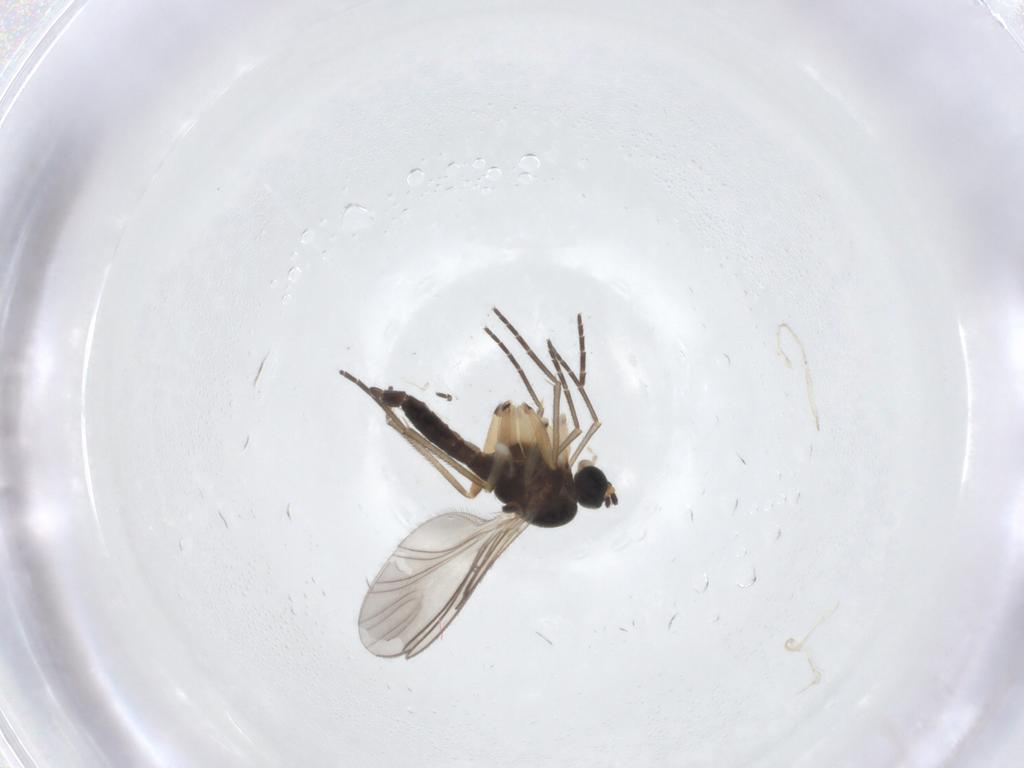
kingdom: Animalia
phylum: Arthropoda
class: Insecta
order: Diptera
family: Sciaridae
